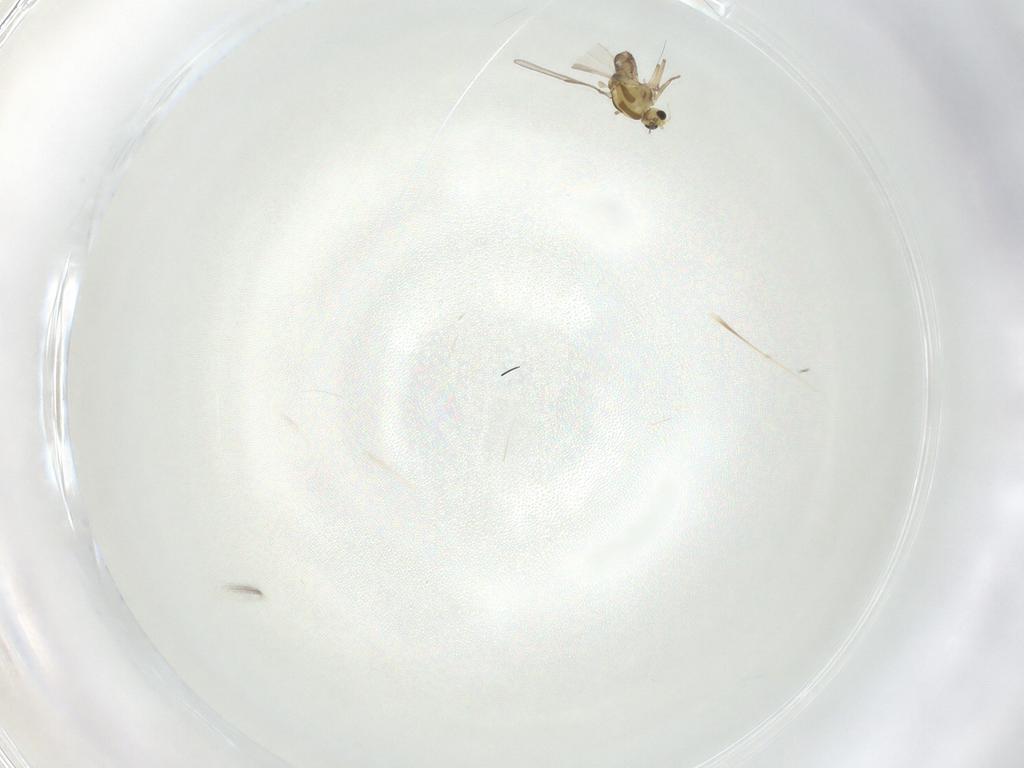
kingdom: Animalia
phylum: Arthropoda
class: Insecta
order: Diptera
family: Chironomidae
